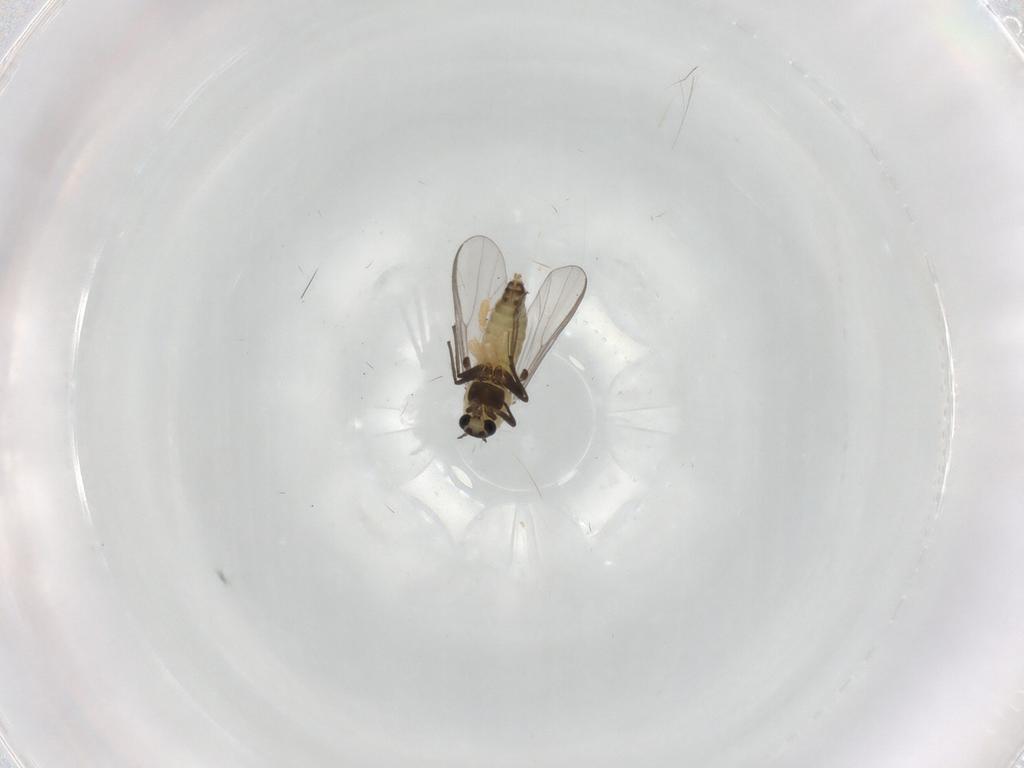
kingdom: Animalia
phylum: Arthropoda
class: Insecta
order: Diptera
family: Chironomidae
